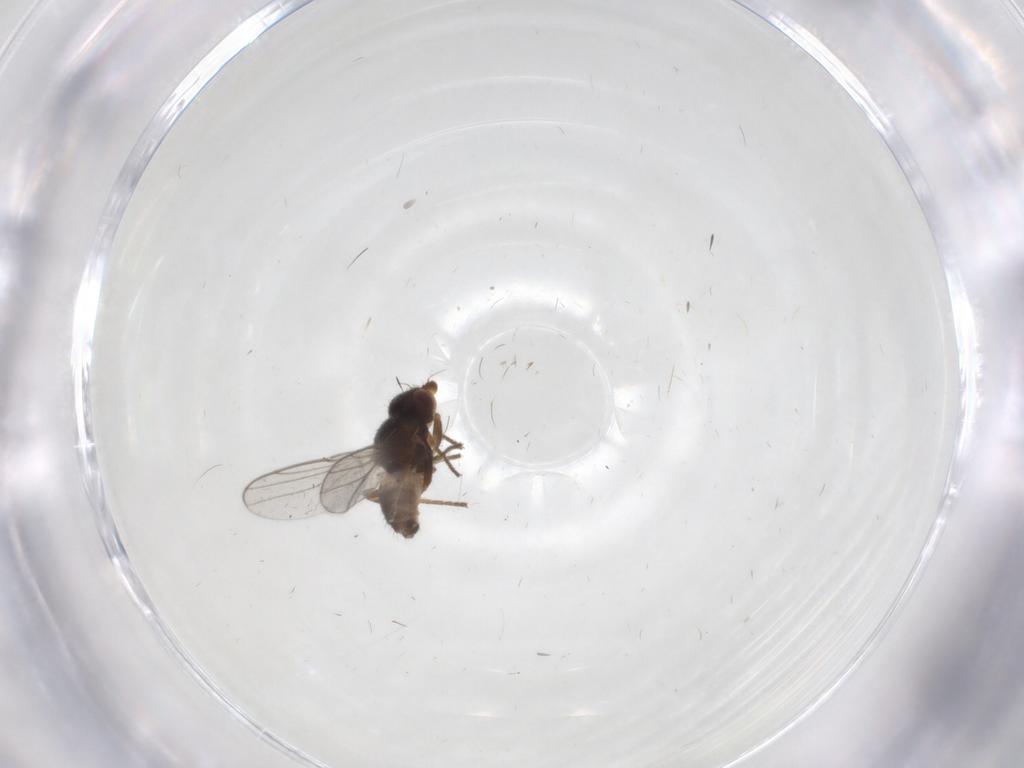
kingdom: Animalia
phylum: Arthropoda
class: Insecta
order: Diptera
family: Chloropidae
